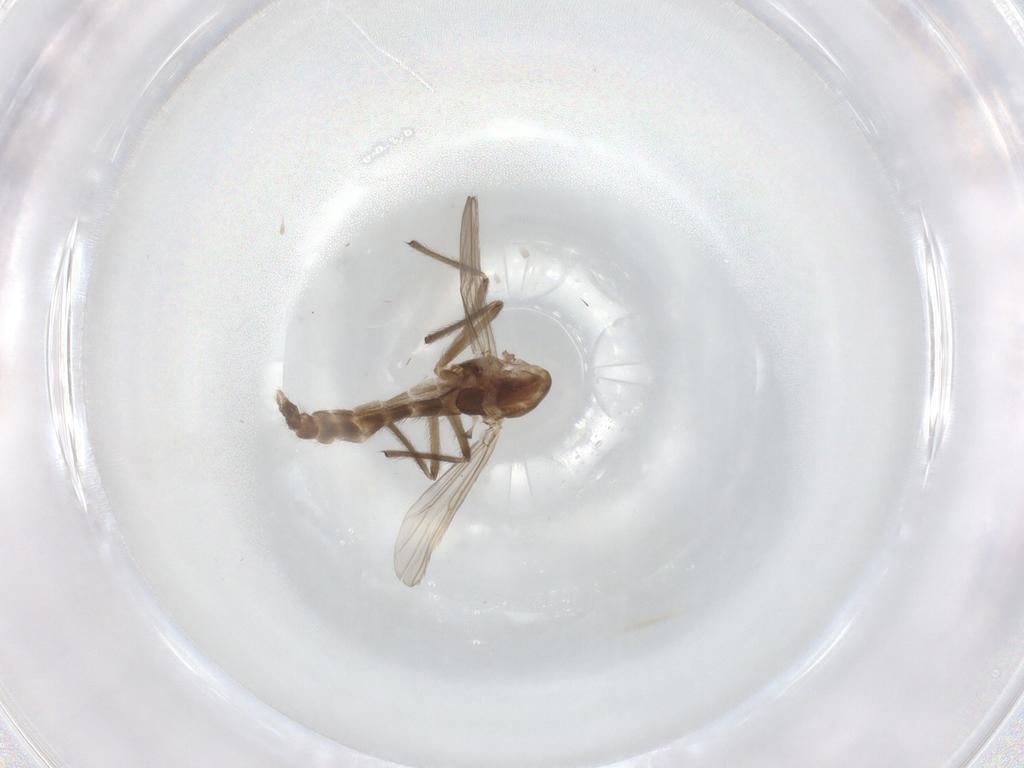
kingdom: Animalia
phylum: Arthropoda
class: Insecta
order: Diptera
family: Chironomidae
